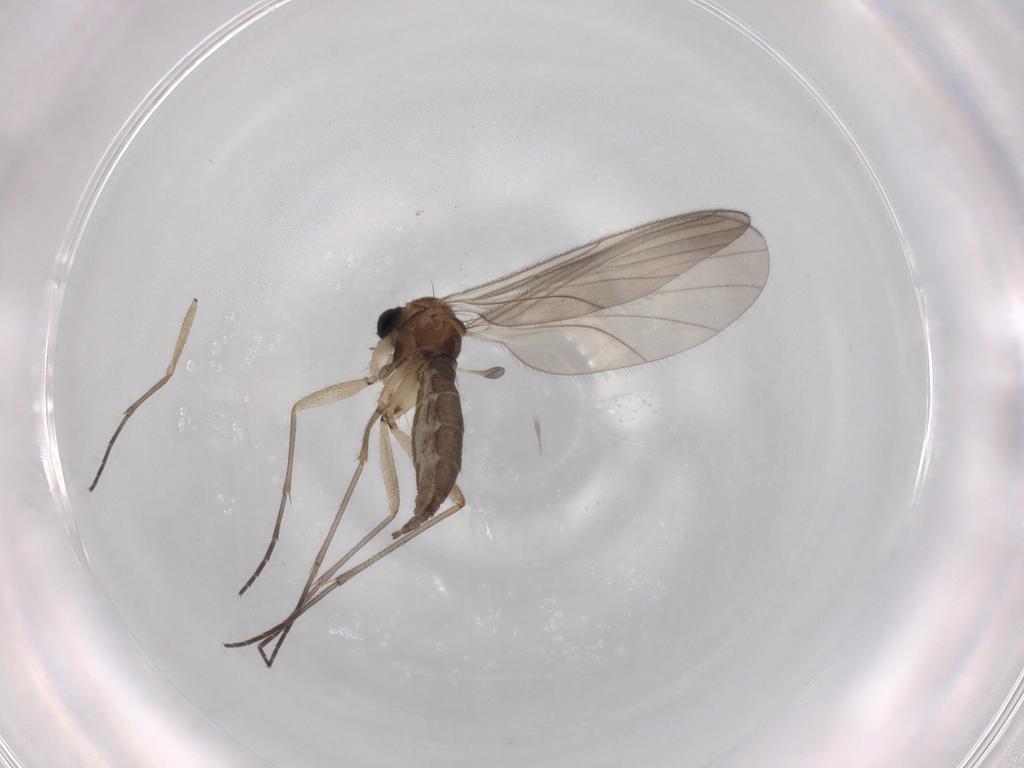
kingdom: Animalia
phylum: Arthropoda
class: Insecta
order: Diptera
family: Sciaridae
